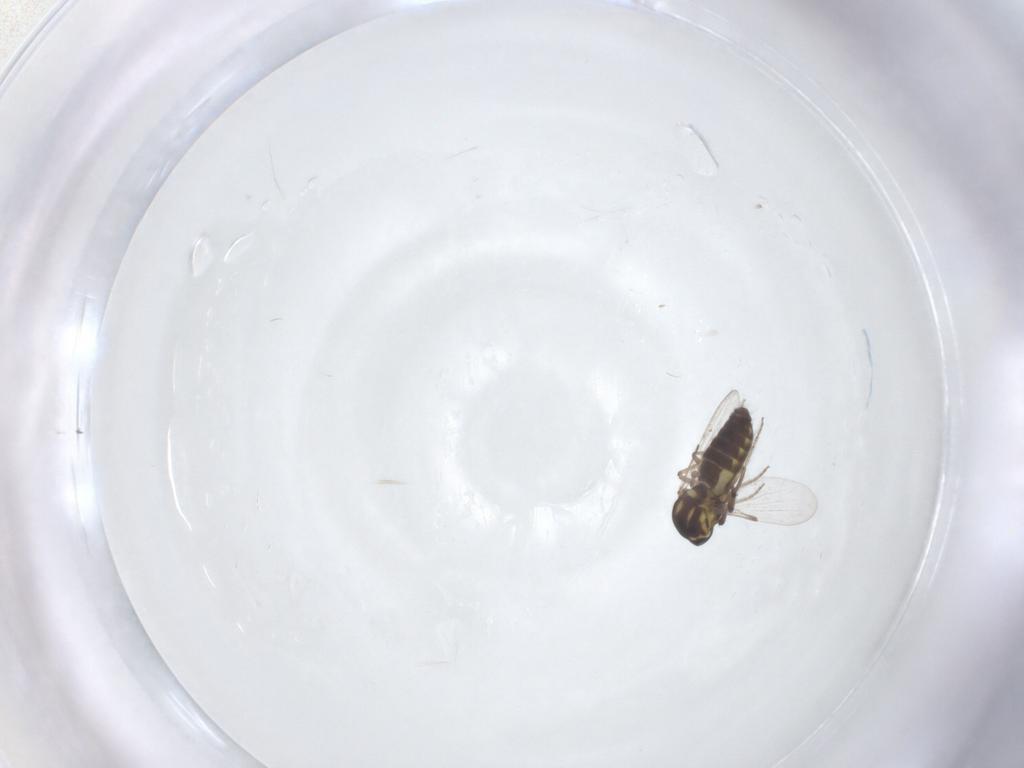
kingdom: Animalia
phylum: Arthropoda
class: Insecta
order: Diptera
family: Ceratopogonidae
